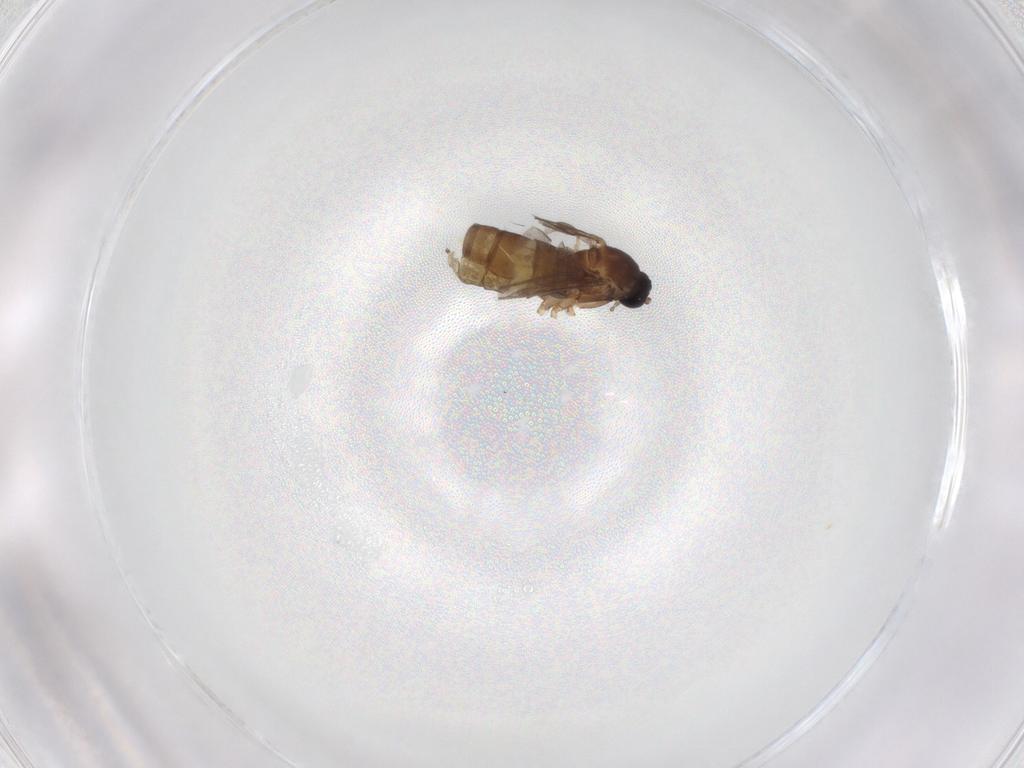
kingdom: Animalia
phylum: Arthropoda
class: Insecta
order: Diptera
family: Sciaridae
